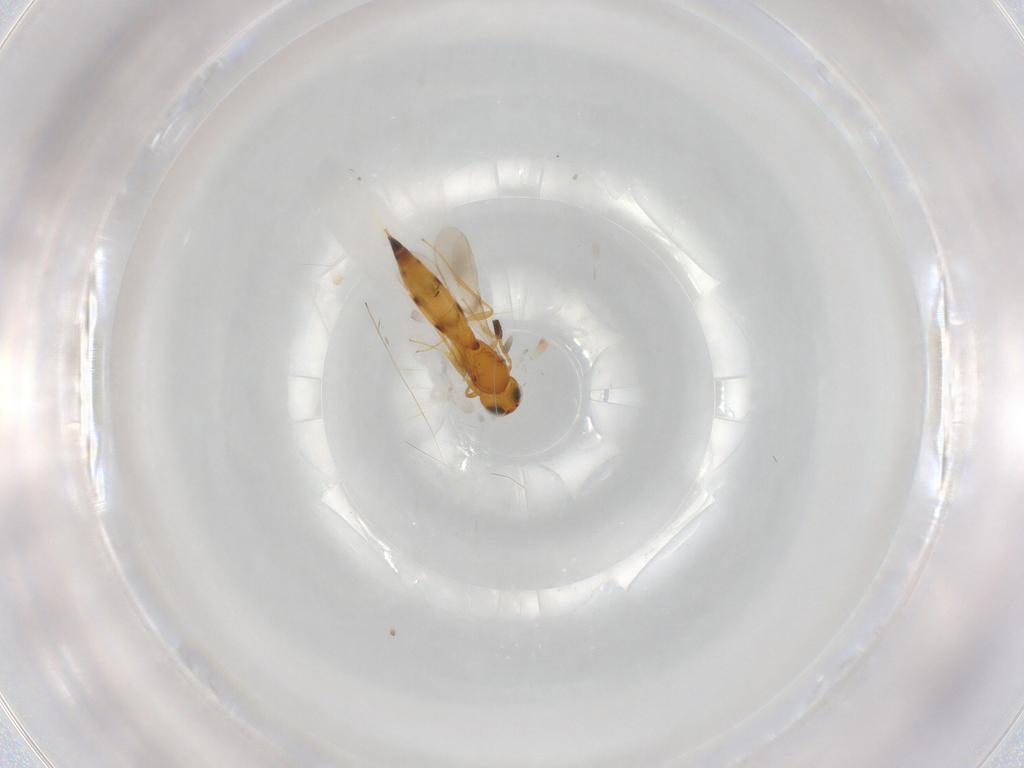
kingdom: Animalia
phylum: Arthropoda
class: Insecta
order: Hymenoptera
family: Scelionidae
